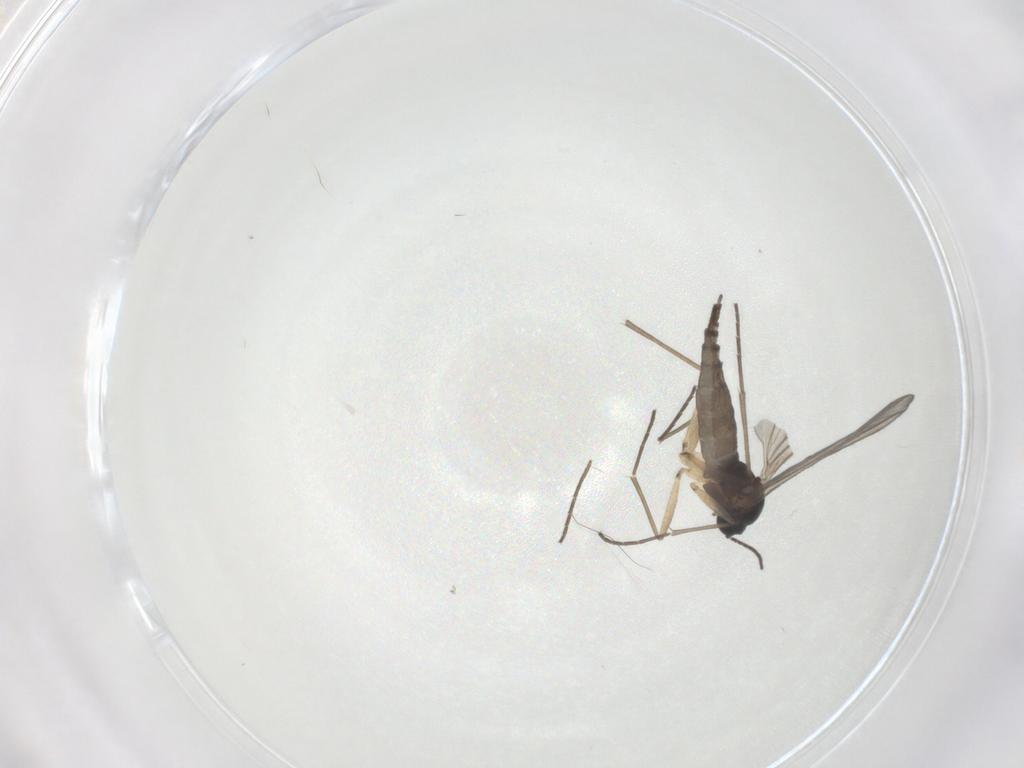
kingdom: Animalia
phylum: Arthropoda
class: Insecta
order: Diptera
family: Sciaridae
